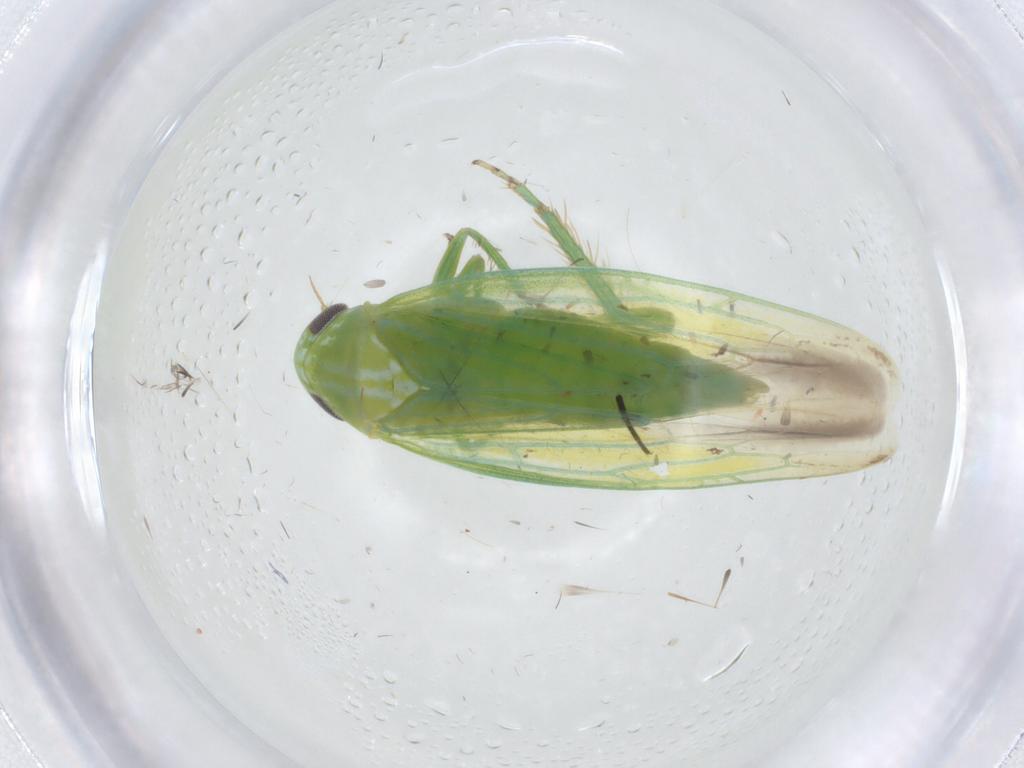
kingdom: Animalia
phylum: Arthropoda
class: Insecta
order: Hemiptera
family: Cicadellidae
